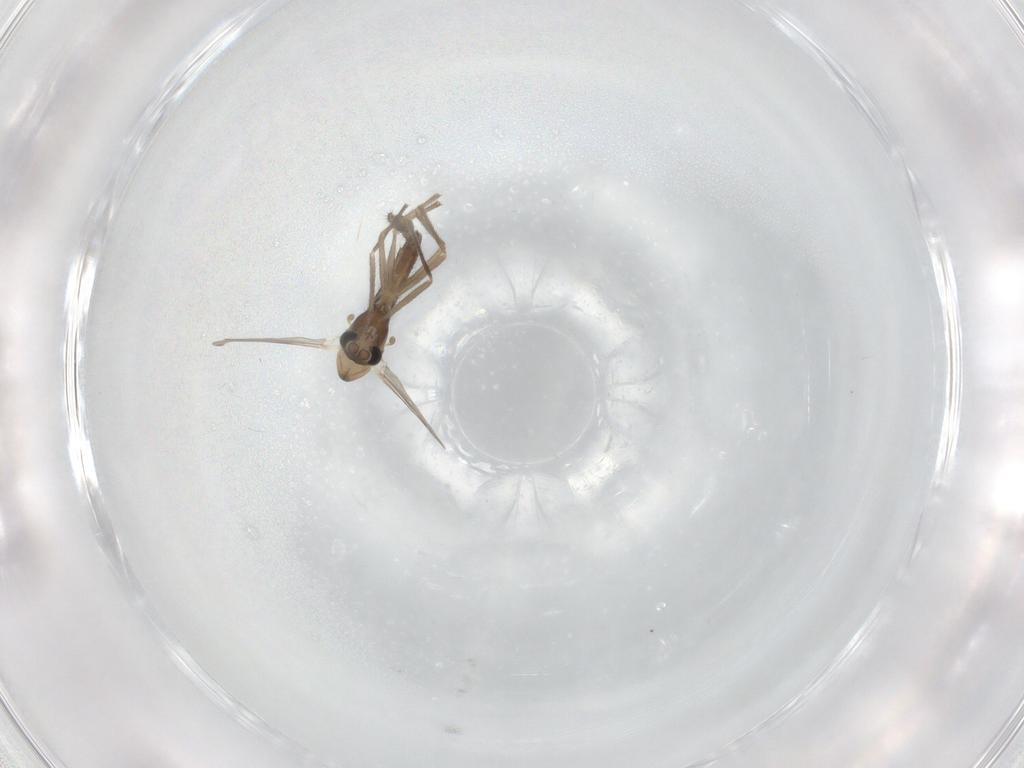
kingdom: Animalia
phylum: Arthropoda
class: Insecta
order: Diptera
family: Chironomidae
